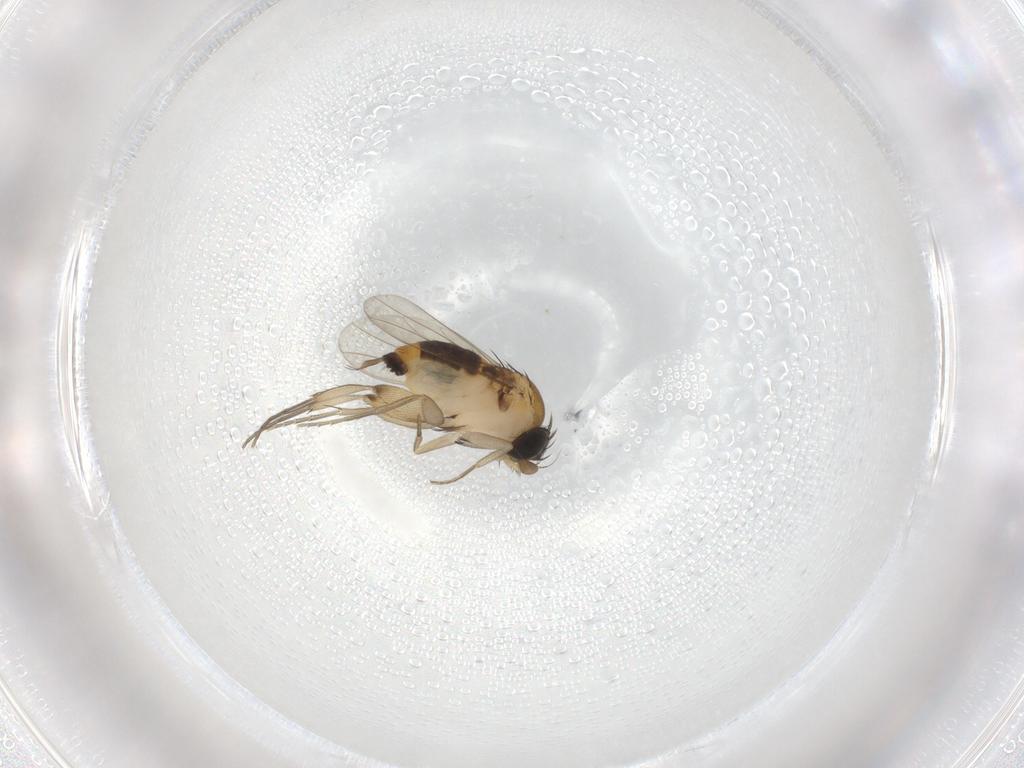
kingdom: Animalia
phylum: Arthropoda
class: Insecta
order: Diptera
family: Phoridae
